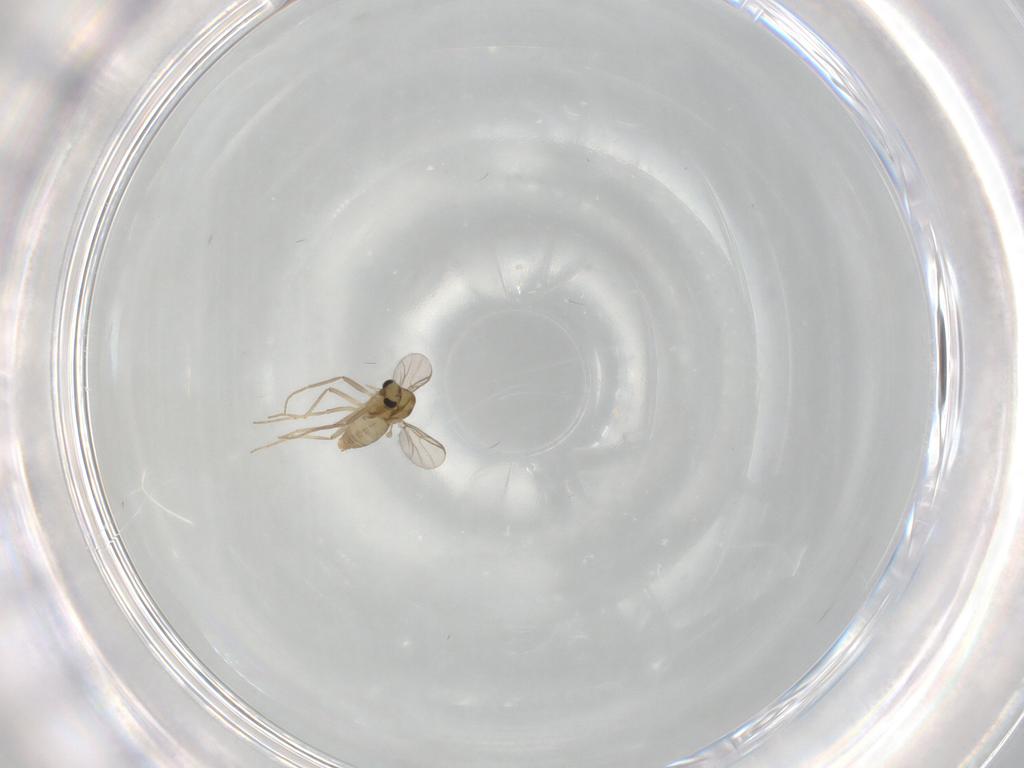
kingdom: Animalia
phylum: Arthropoda
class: Insecta
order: Diptera
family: Chironomidae
